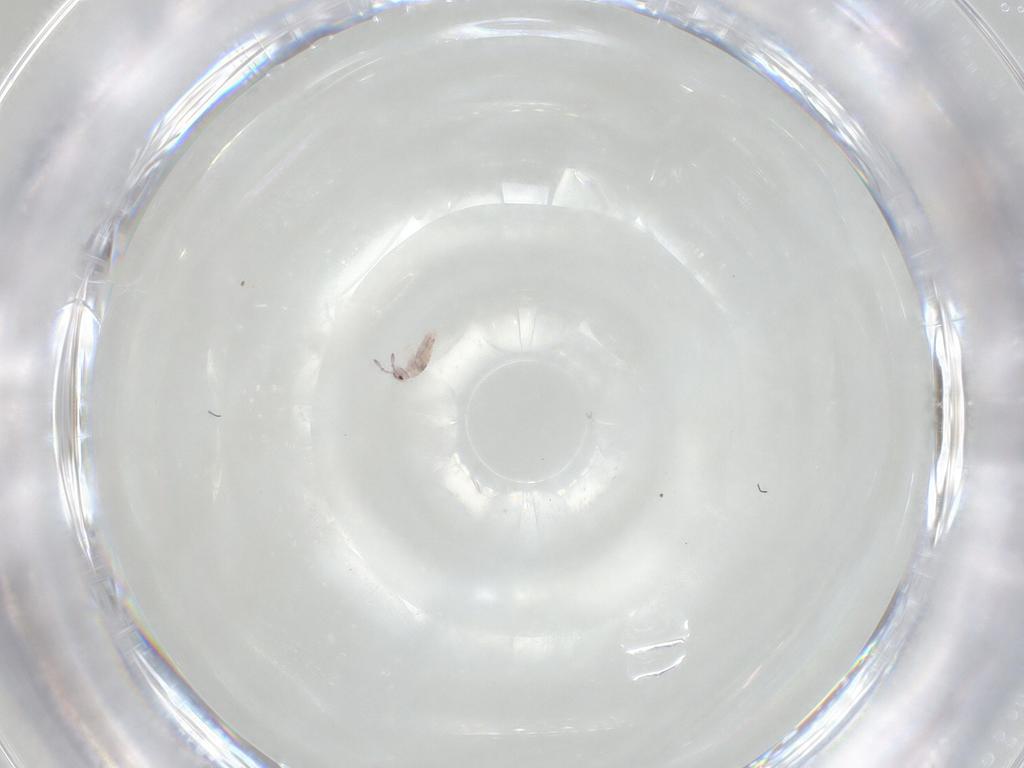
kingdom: Animalia
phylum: Arthropoda
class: Collembola
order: Entomobryomorpha
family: Entomobryidae
